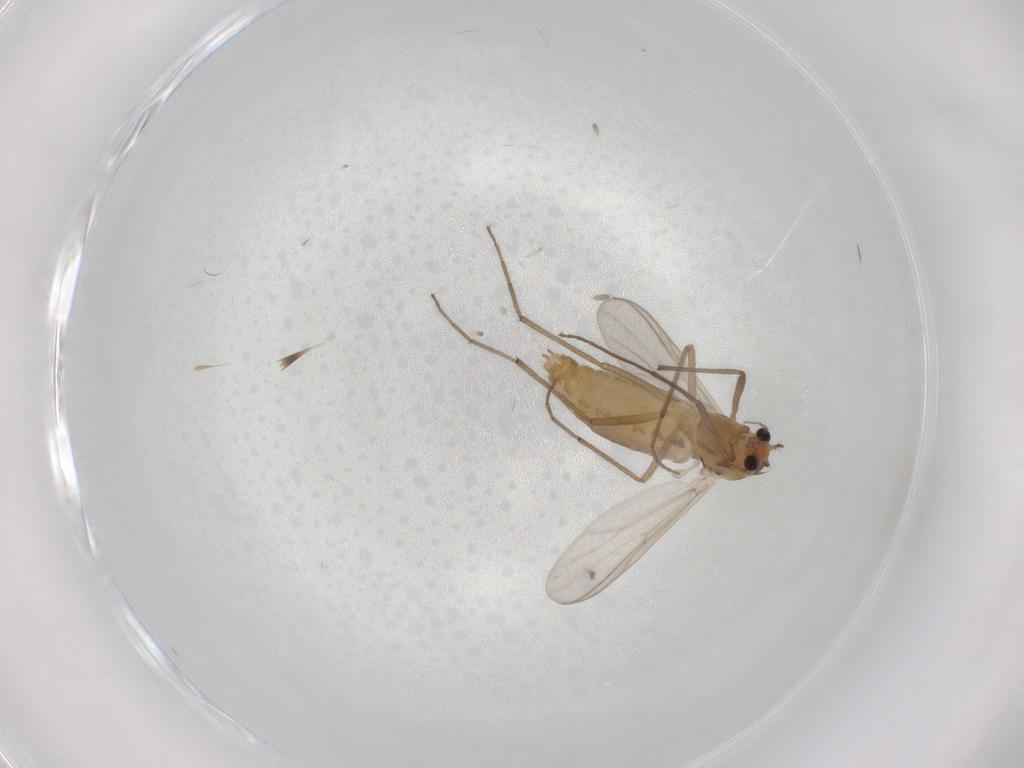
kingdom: Animalia
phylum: Arthropoda
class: Insecta
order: Diptera
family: Chironomidae
